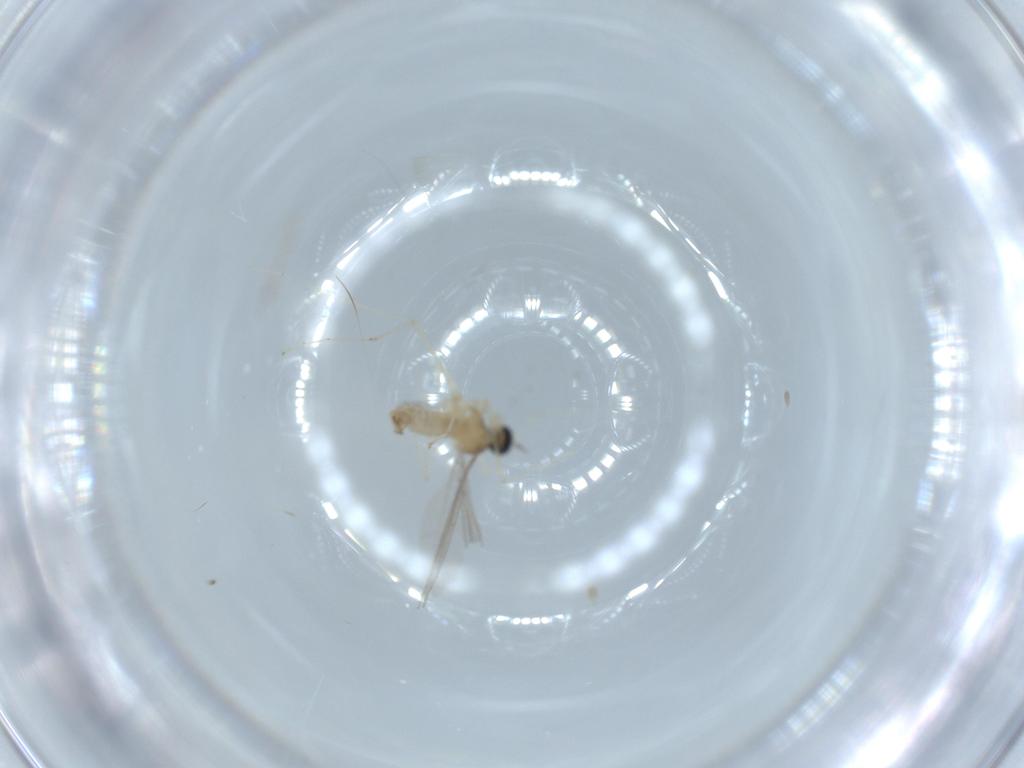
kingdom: Animalia
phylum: Arthropoda
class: Insecta
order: Diptera
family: Cecidomyiidae
